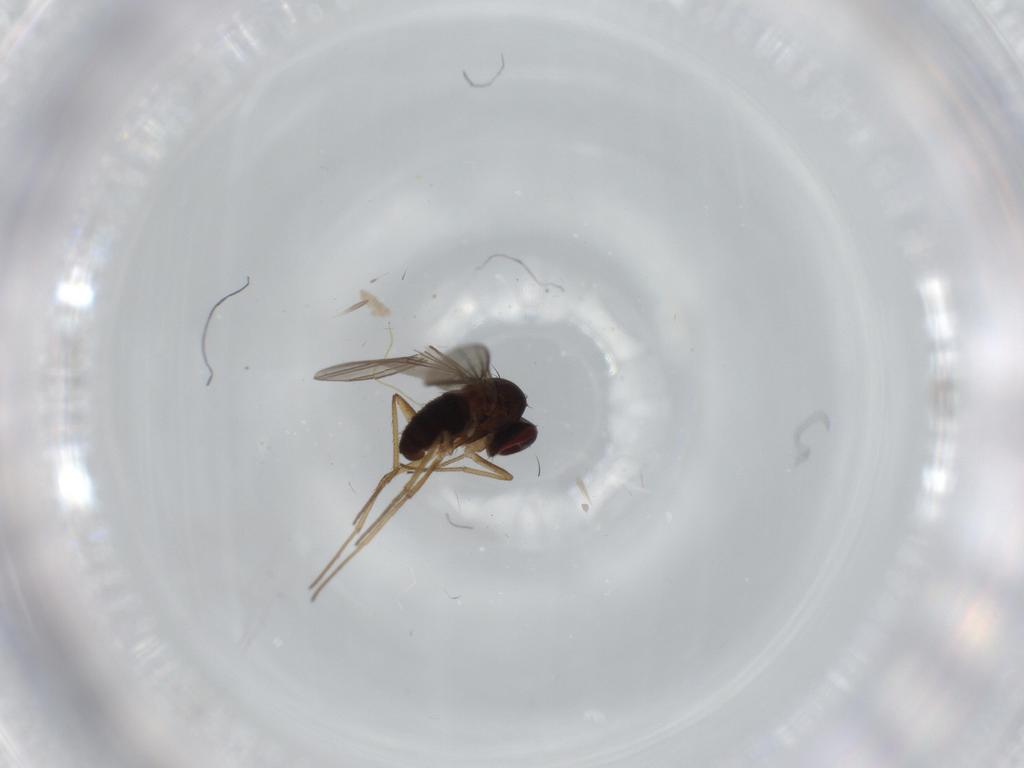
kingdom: Animalia
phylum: Arthropoda
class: Insecta
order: Diptera
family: Dolichopodidae
